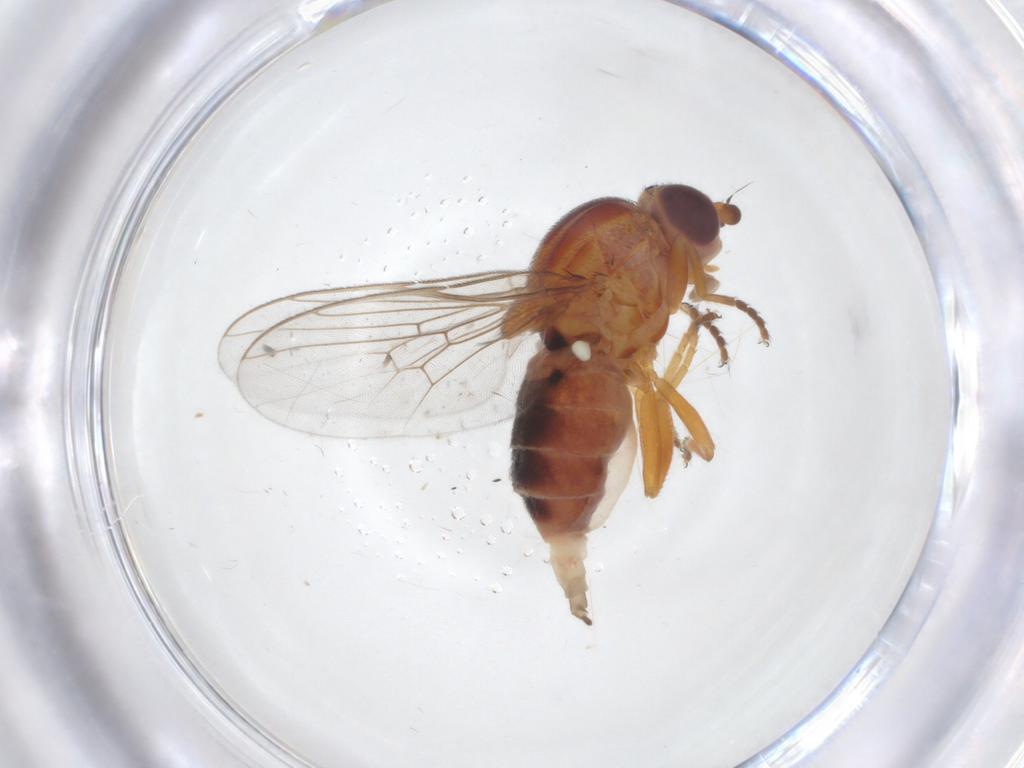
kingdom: Animalia
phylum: Arthropoda
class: Insecta
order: Diptera
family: Chloropidae
